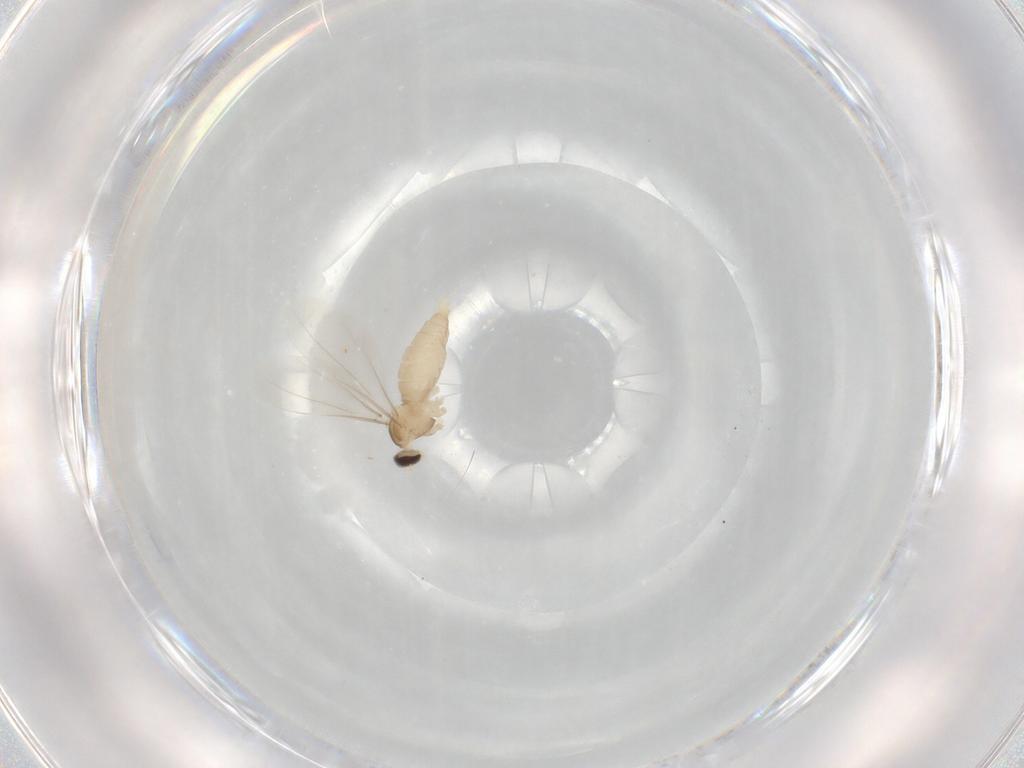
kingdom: Animalia
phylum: Arthropoda
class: Insecta
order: Diptera
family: Cecidomyiidae
